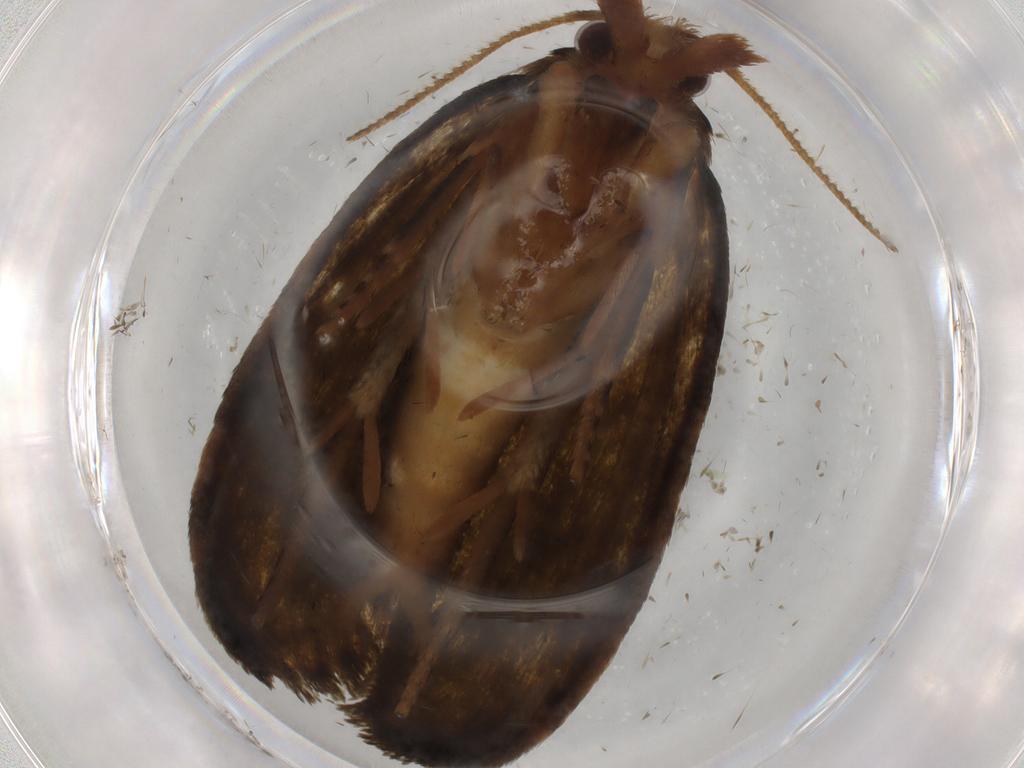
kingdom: Animalia
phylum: Arthropoda
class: Insecta
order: Lepidoptera
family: Geometridae
